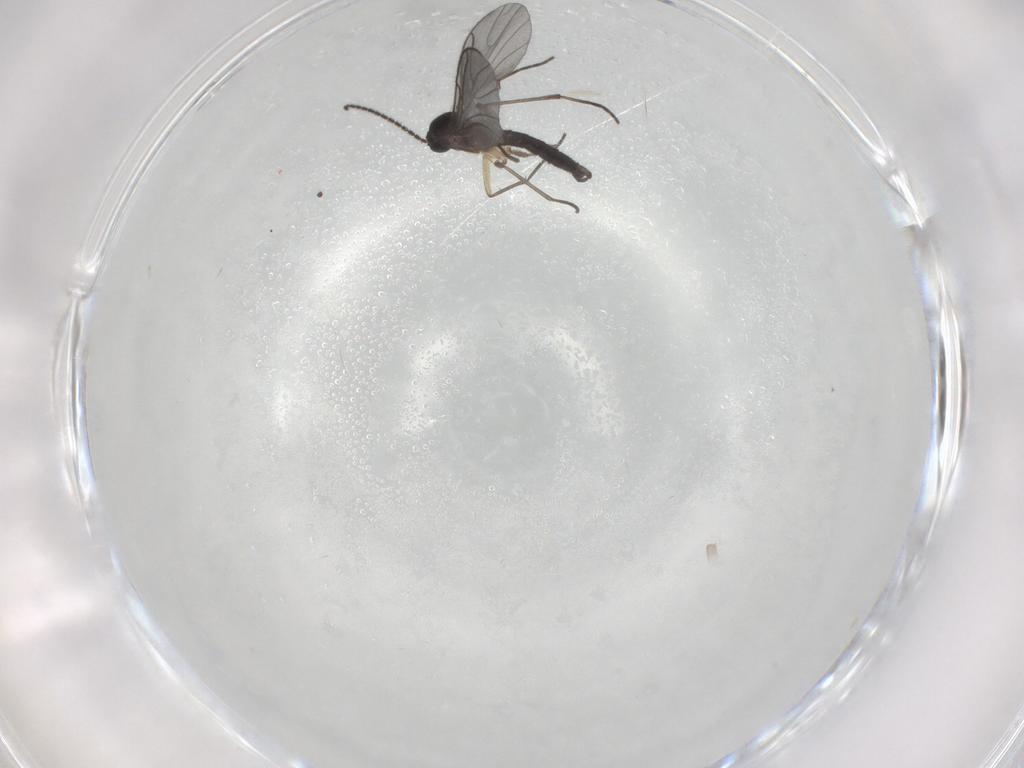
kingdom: Animalia
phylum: Arthropoda
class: Insecta
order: Diptera
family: Sciaridae
